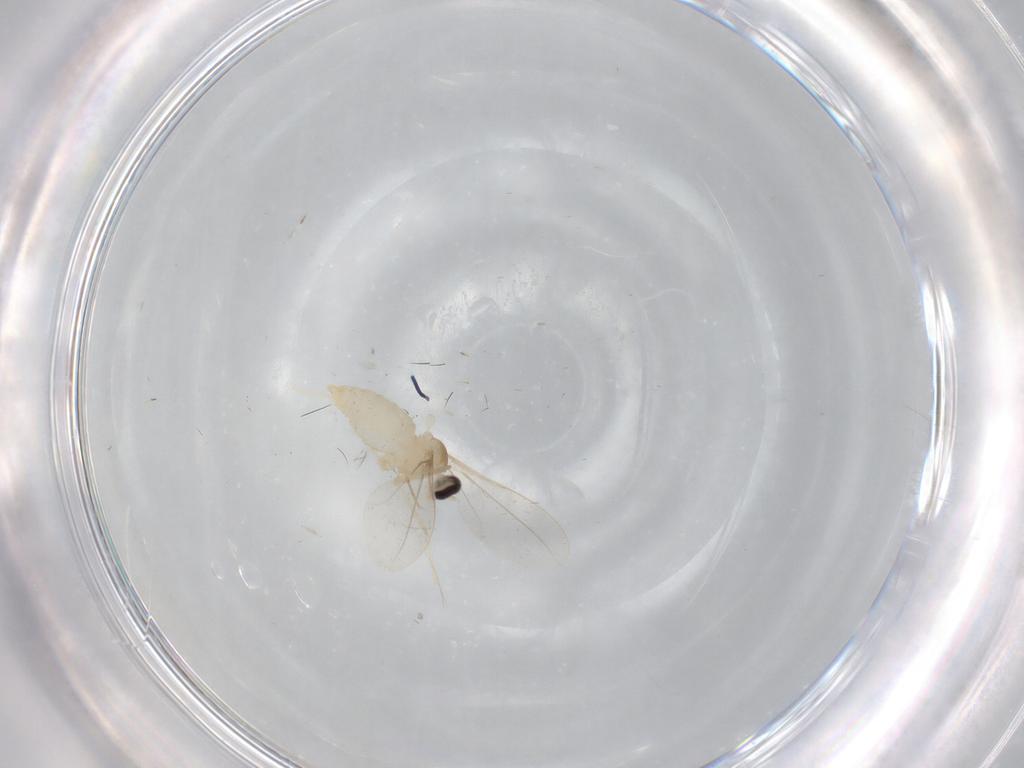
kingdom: Animalia
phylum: Arthropoda
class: Insecta
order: Diptera
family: Cecidomyiidae
